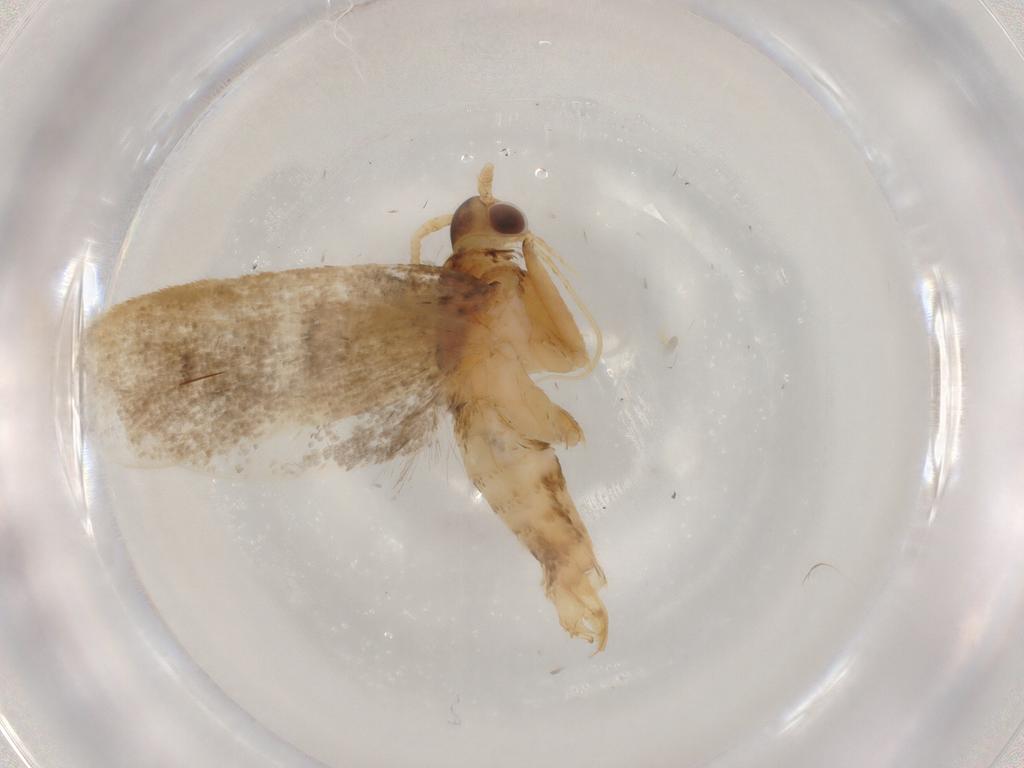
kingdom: Animalia
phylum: Arthropoda
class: Insecta
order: Lepidoptera
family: Lecithoceridae
